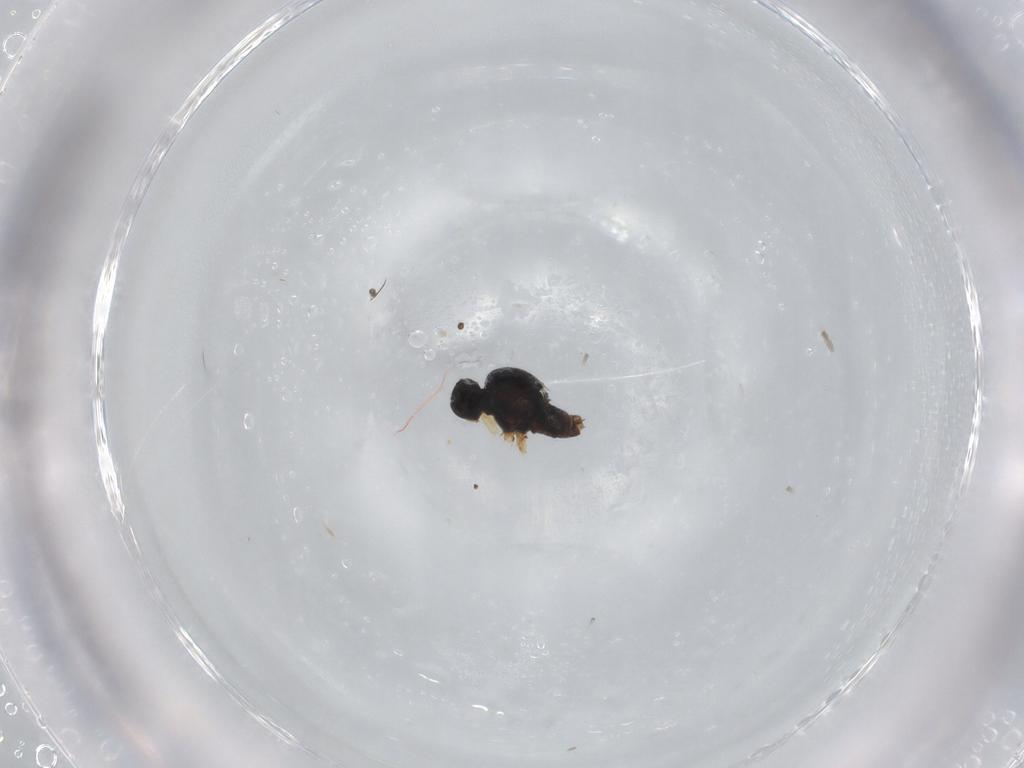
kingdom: Animalia
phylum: Arthropoda
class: Insecta
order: Diptera
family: Hybotidae
